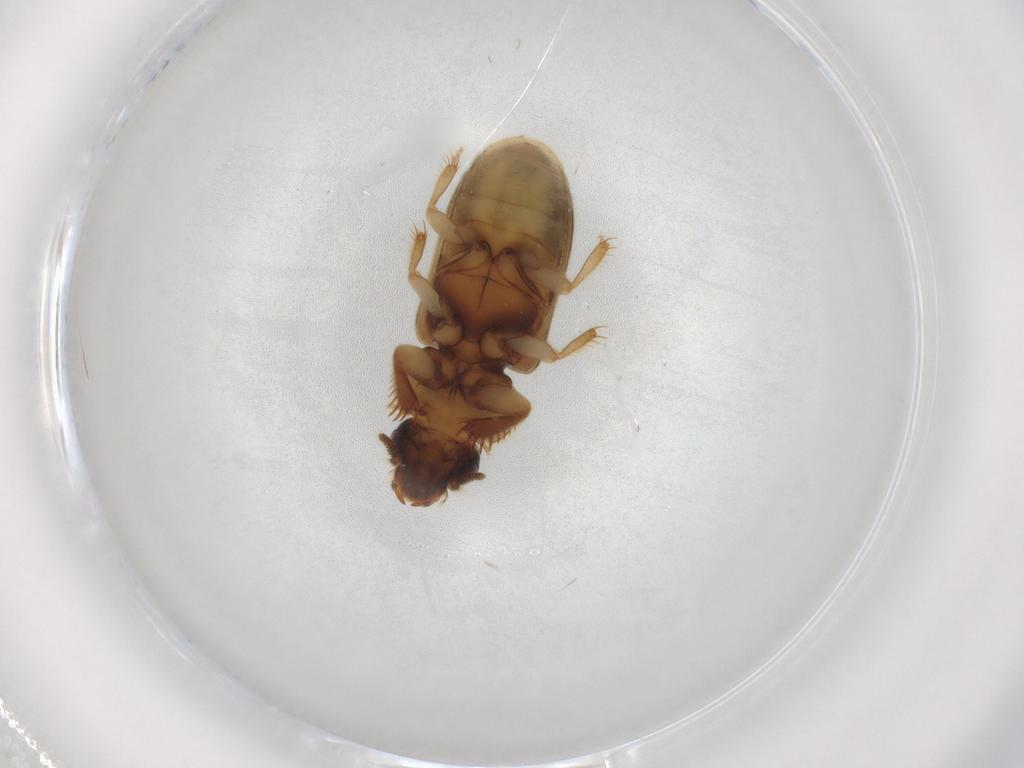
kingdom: Animalia
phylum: Arthropoda
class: Insecta
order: Coleoptera
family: Heteroceridae
